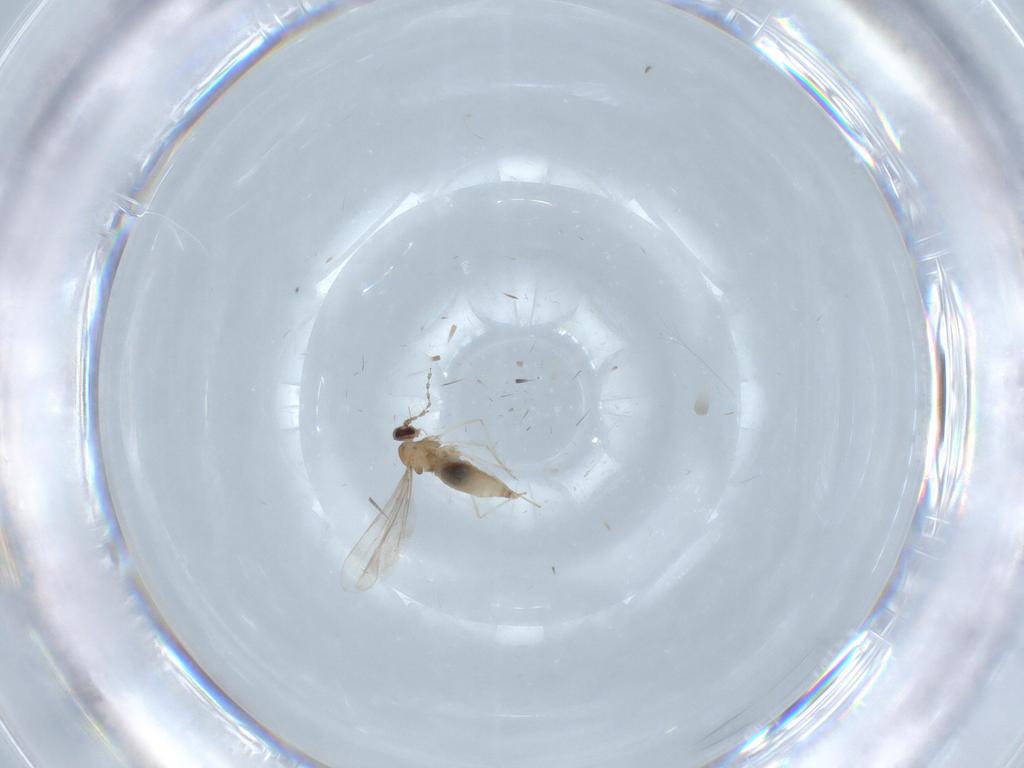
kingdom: Animalia
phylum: Arthropoda
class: Insecta
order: Diptera
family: Cecidomyiidae
